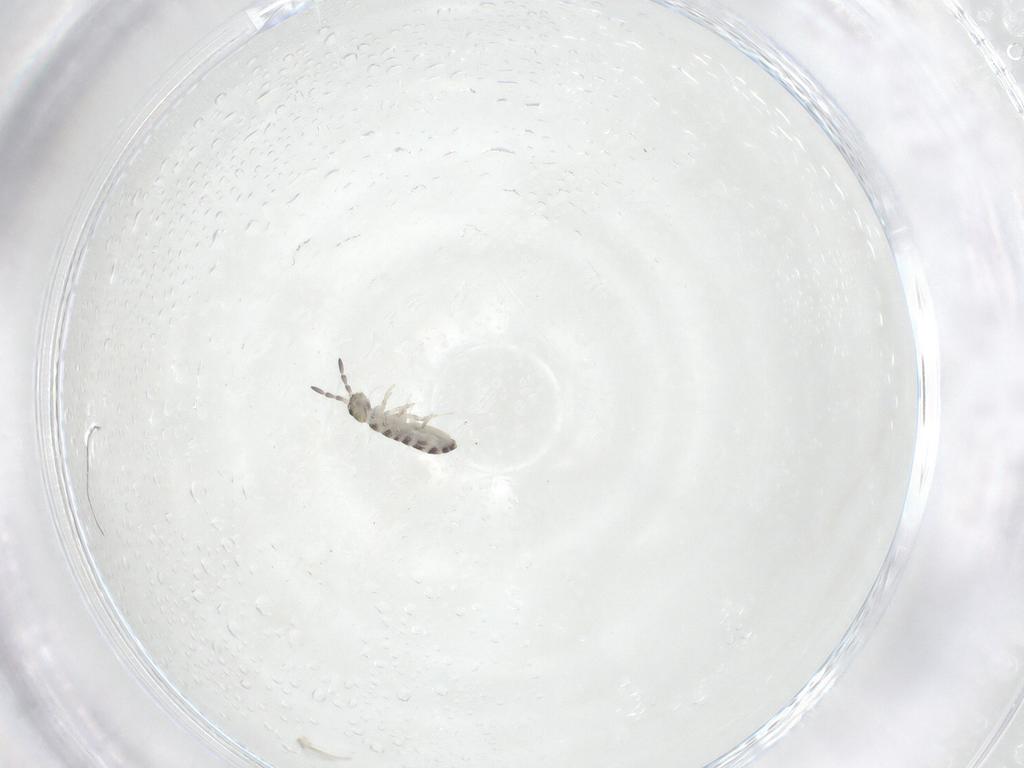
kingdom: Animalia
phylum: Arthropoda
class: Collembola
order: Entomobryomorpha
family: Isotomidae
